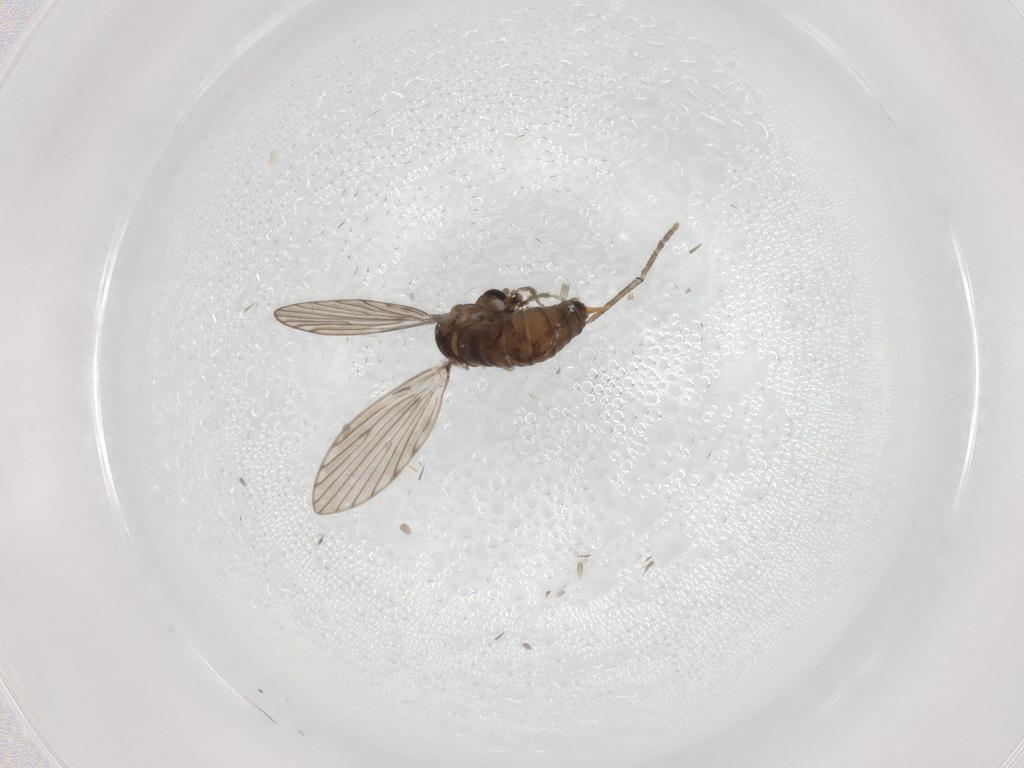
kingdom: Animalia
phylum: Arthropoda
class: Insecta
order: Diptera
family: Psychodidae
